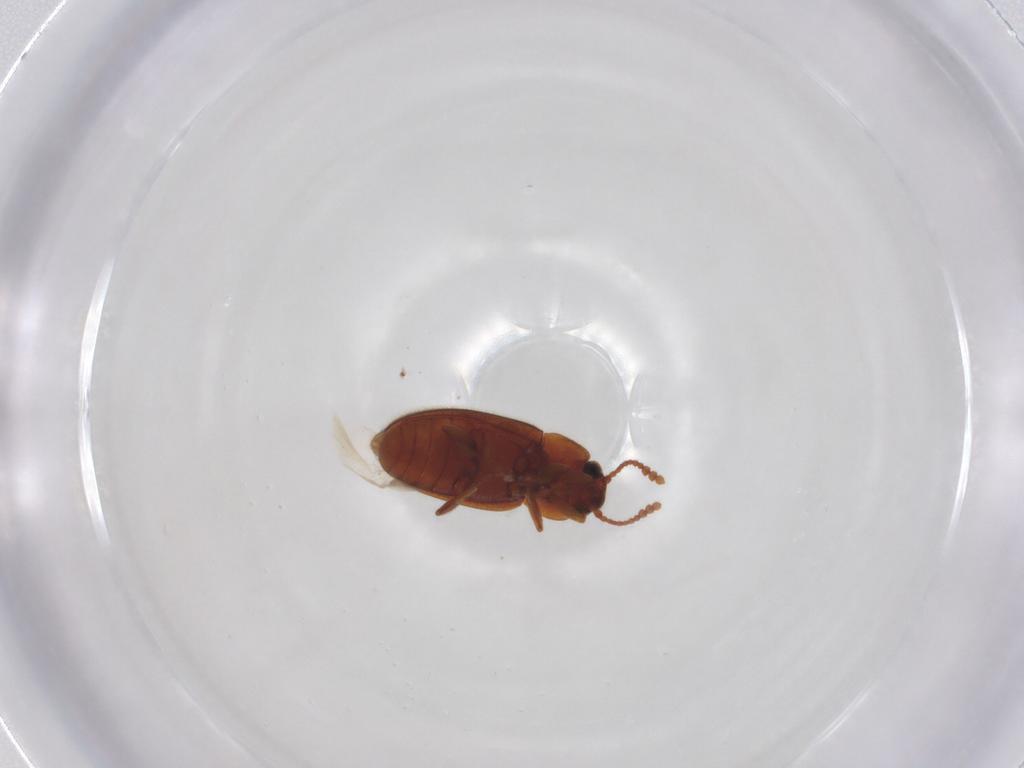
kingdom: Animalia
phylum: Arthropoda
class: Insecta
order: Coleoptera
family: Erotylidae
